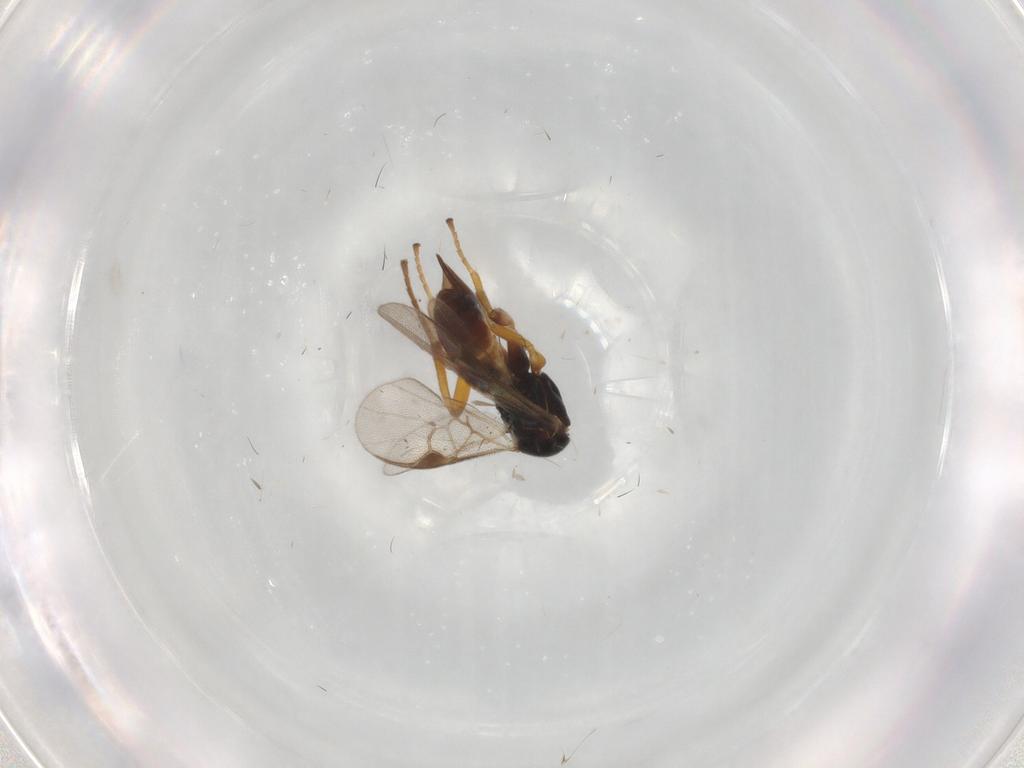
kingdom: Animalia
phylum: Arthropoda
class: Insecta
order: Hymenoptera
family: Braconidae
